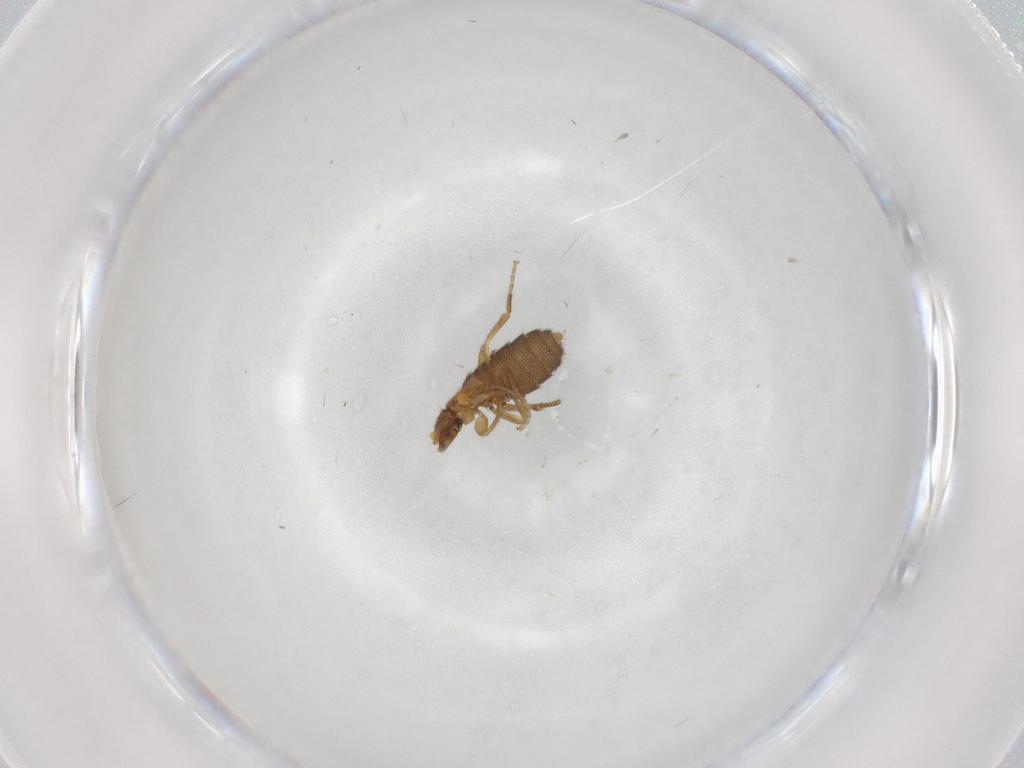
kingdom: Animalia
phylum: Arthropoda
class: Insecta
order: Diptera
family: Phoridae
